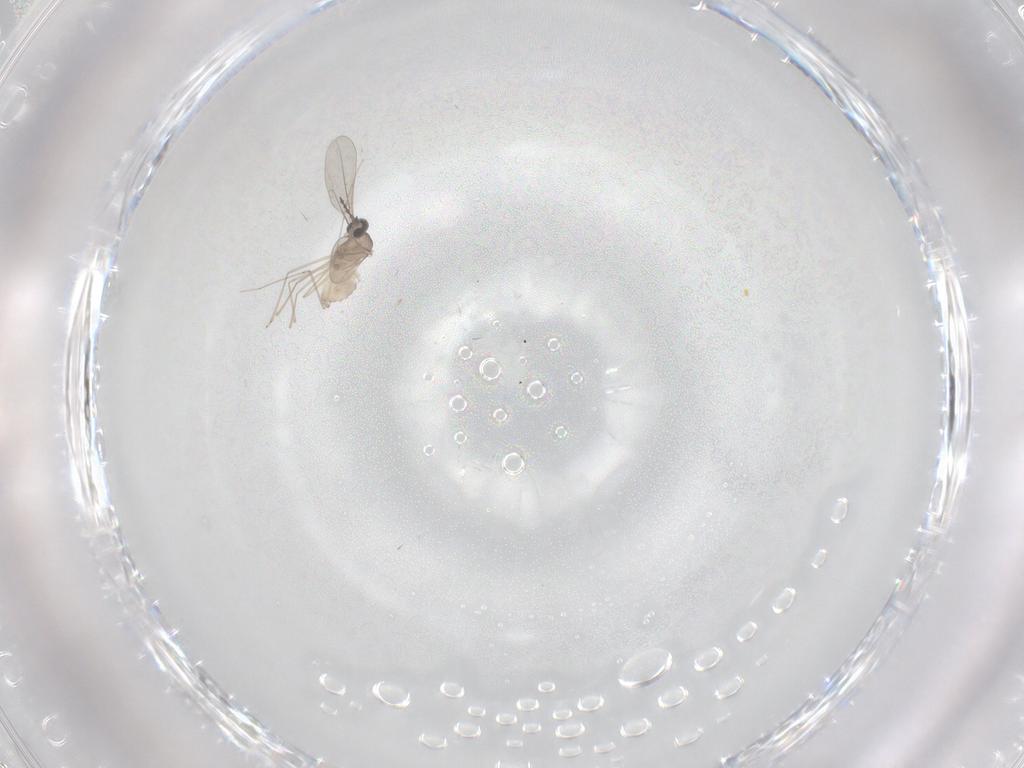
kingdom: Animalia
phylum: Arthropoda
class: Insecta
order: Diptera
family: Cecidomyiidae
